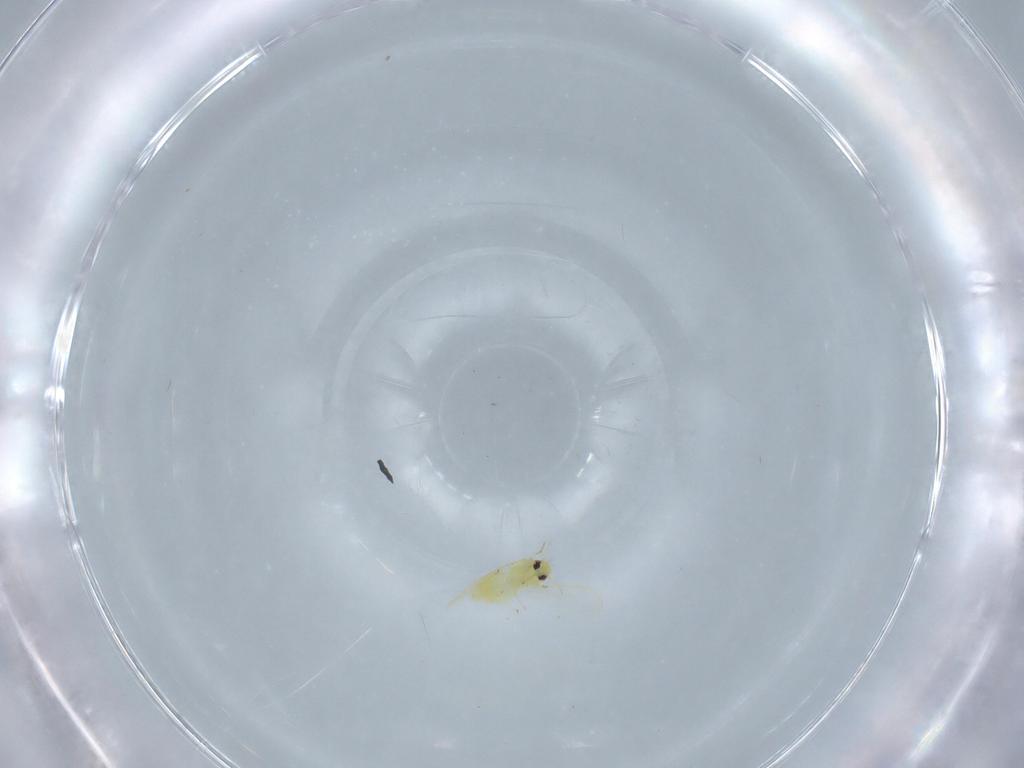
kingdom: Animalia
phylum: Arthropoda
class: Insecta
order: Hemiptera
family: Aleyrodidae
